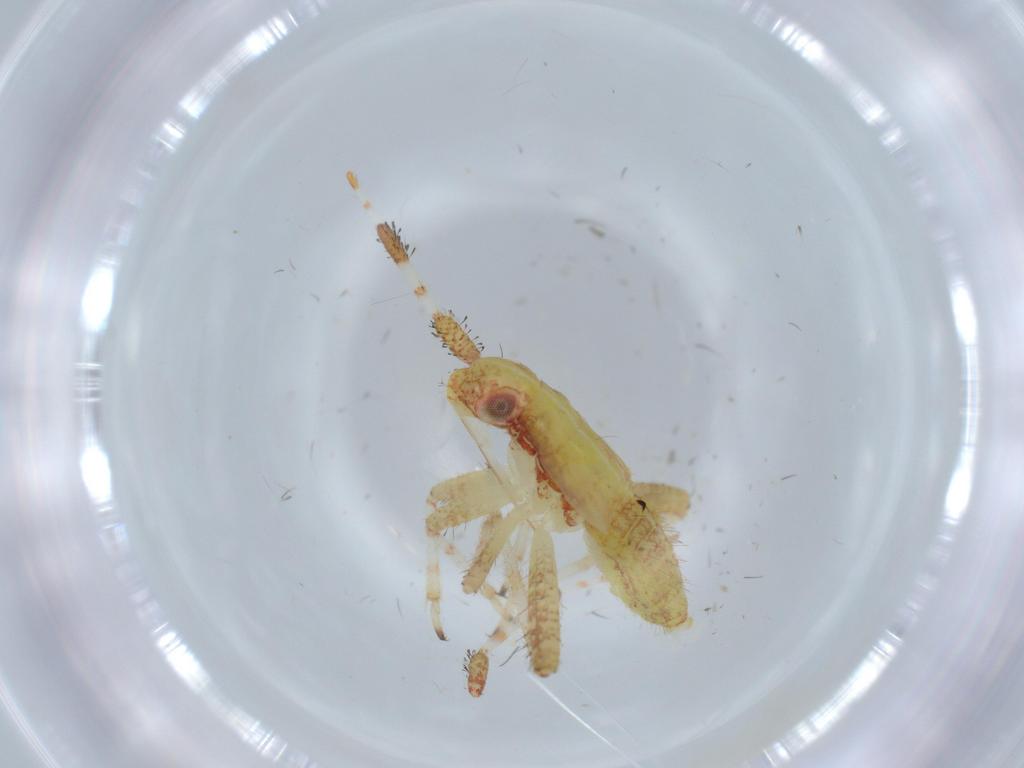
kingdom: Animalia
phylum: Arthropoda
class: Insecta
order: Hemiptera
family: Miridae
